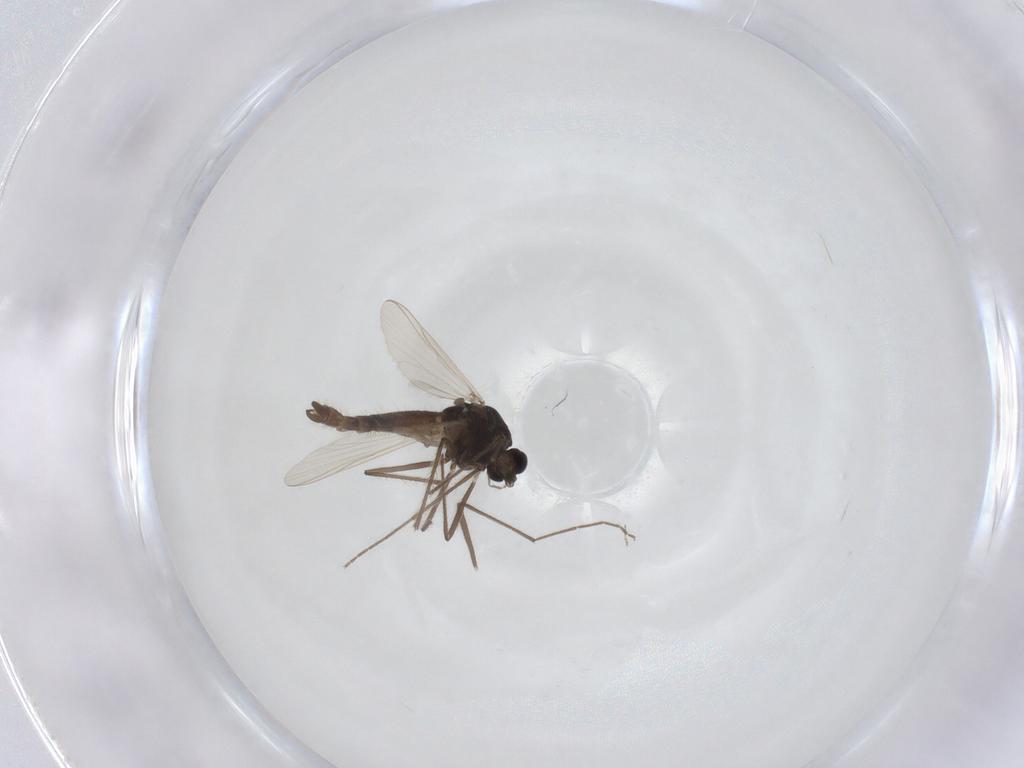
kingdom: Animalia
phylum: Arthropoda
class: Insecta
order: Diptera
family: Chironomidae
